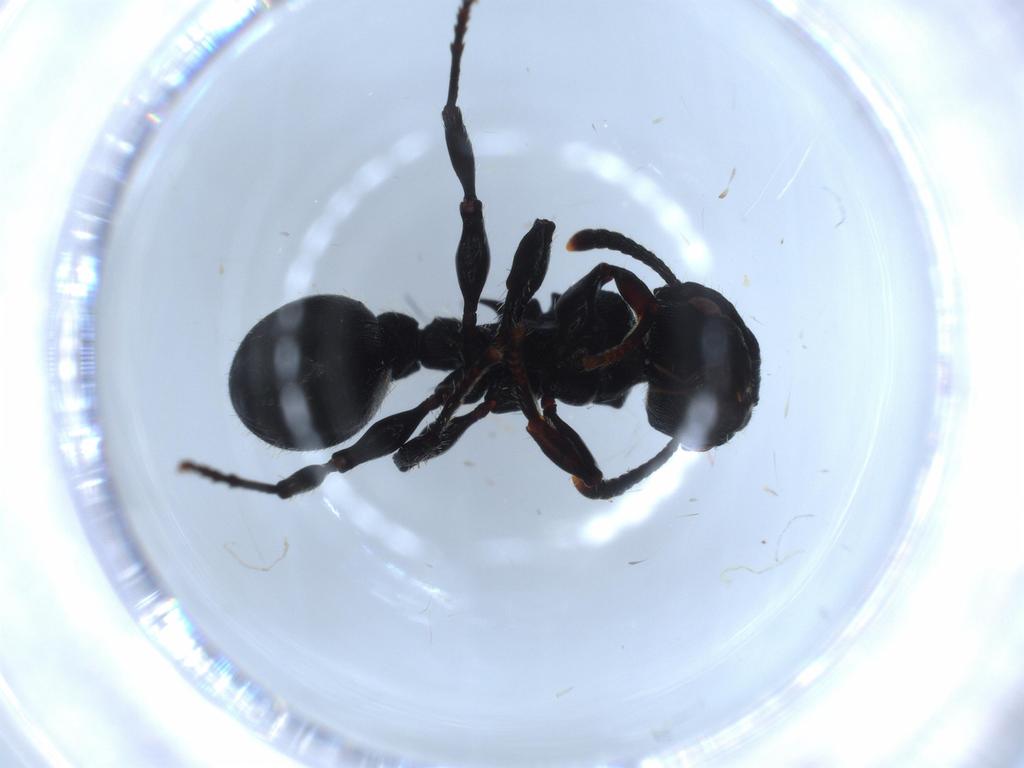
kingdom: Animalia
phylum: Arthropoda
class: Insecta
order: Hymenoptera
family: Formicidae
